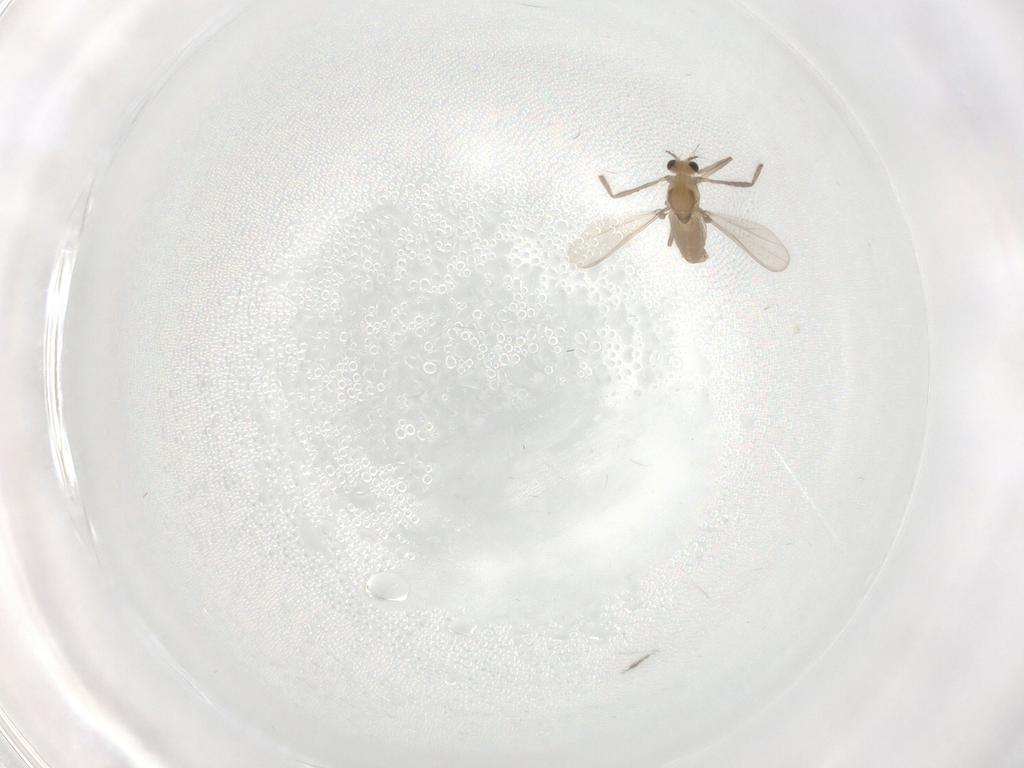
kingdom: Animalia
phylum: Arthropoda
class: Insecta
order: Diptera
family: Chironomidae
